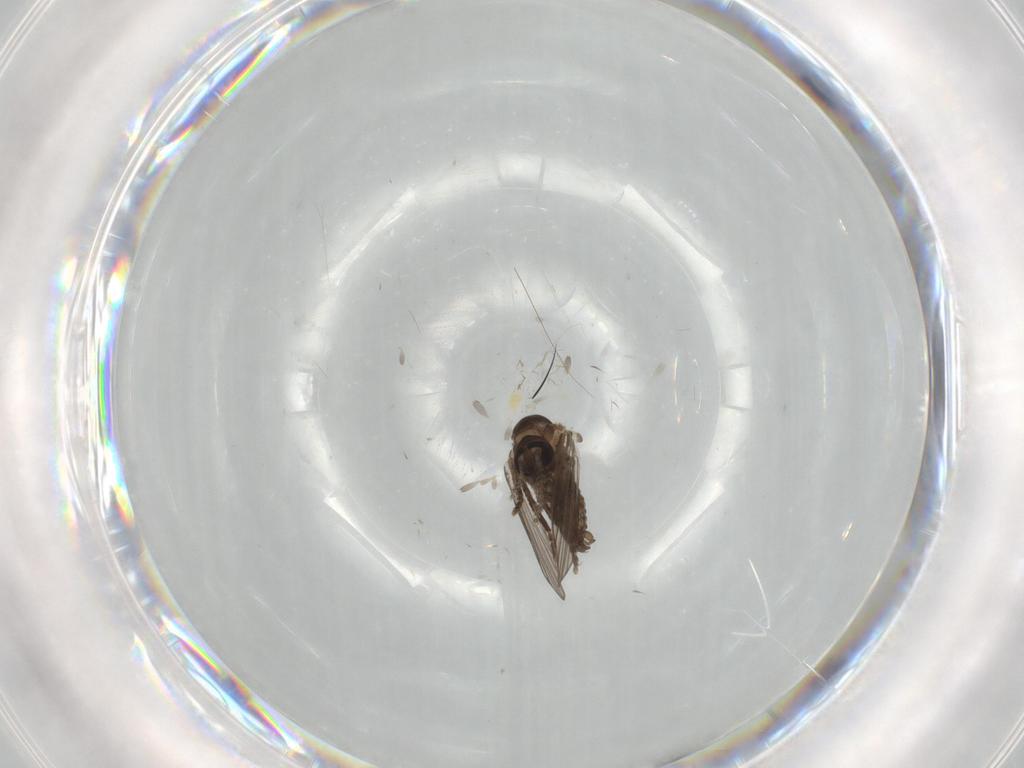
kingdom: Animalia
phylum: Arthropoda
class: Insecta
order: Diptera
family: Psychodidae
